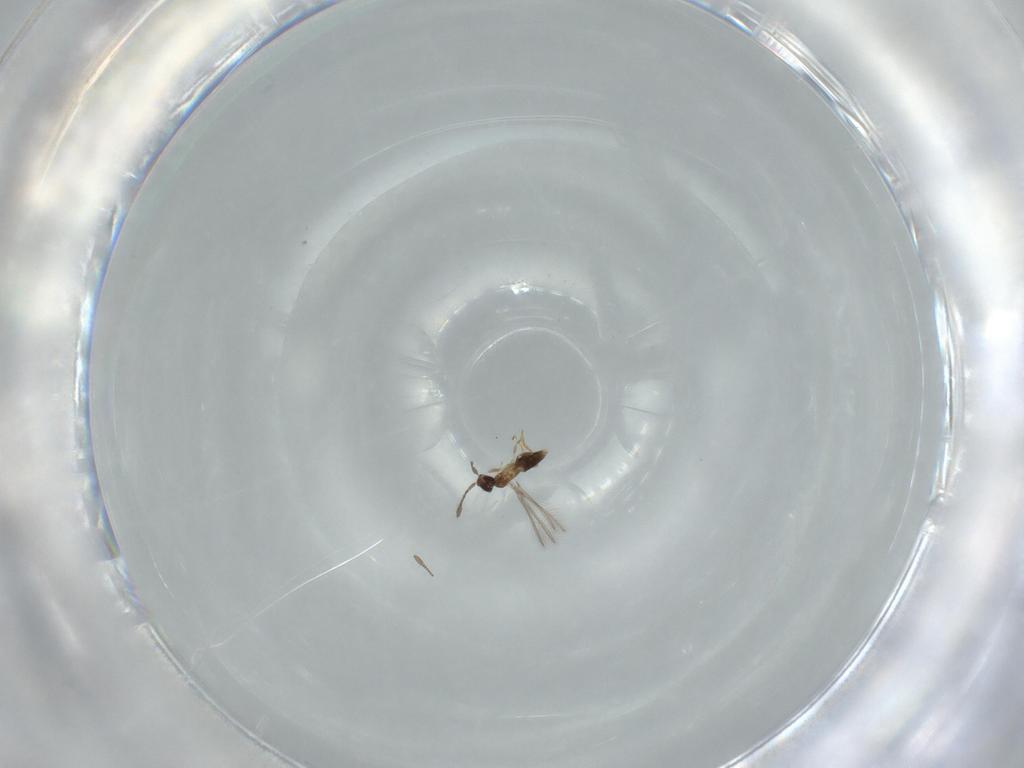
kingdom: Animalia
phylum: Arthropoda
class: Insecta
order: Hymenoptera
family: Mymaridae
